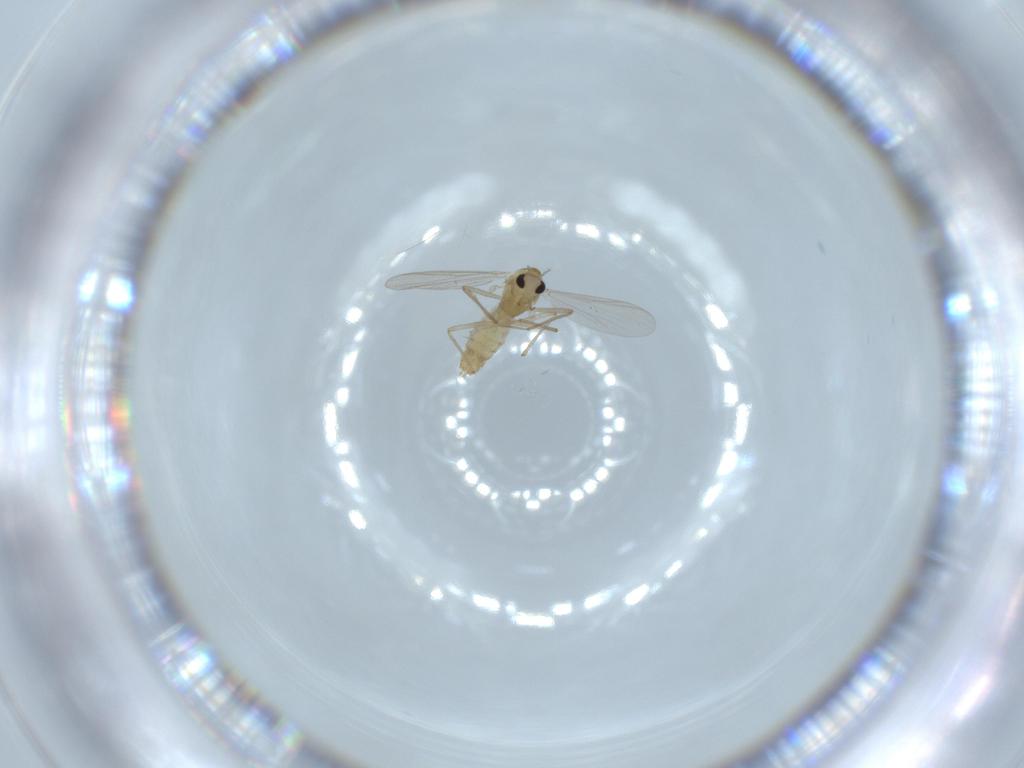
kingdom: Animalia
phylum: Arthropoda
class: Insecta
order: Diptera
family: Chironomidae
